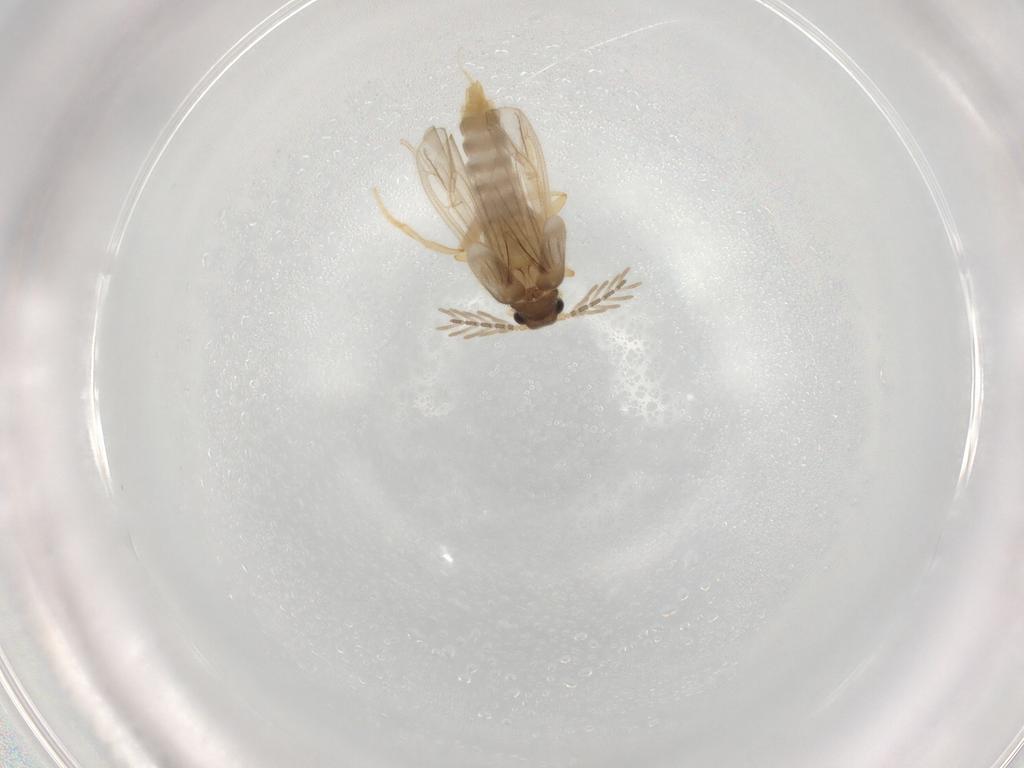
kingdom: Animalia
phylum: Arthropoda
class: Insecta
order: Coleoptera
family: Phengodidae
